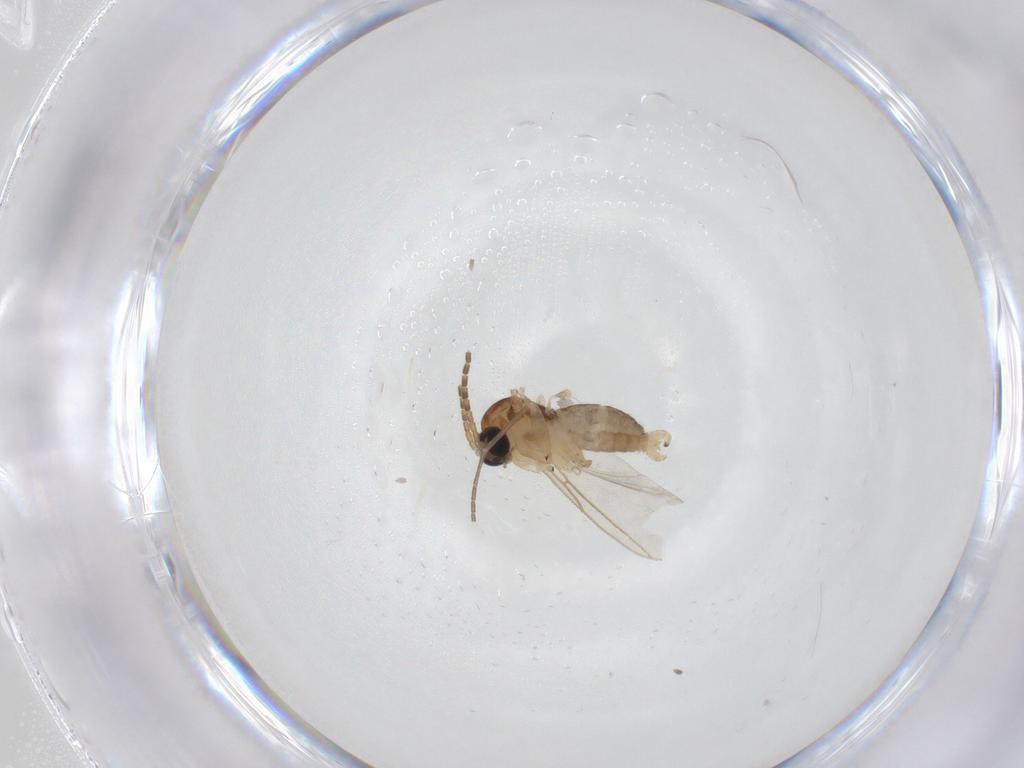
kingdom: Animalia
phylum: Arthropoda
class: Insecta
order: Diptera
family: Sciaridae
